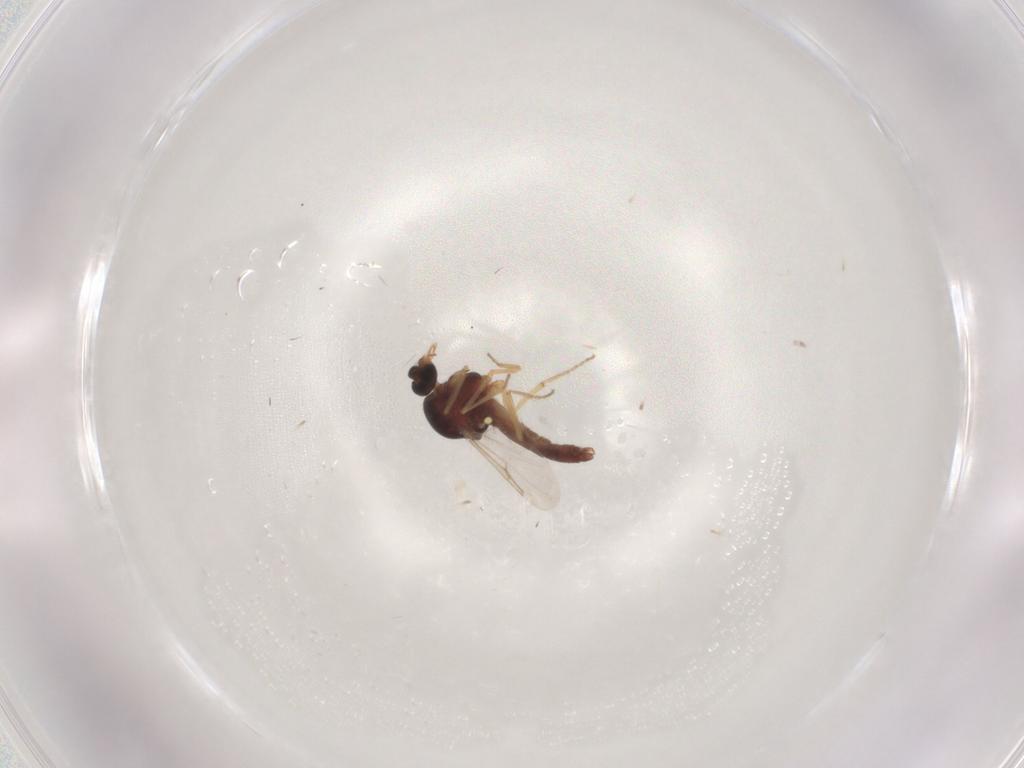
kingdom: Animalia
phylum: Arthropoda
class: Insecta
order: Diptera
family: Ceratopogonidae
